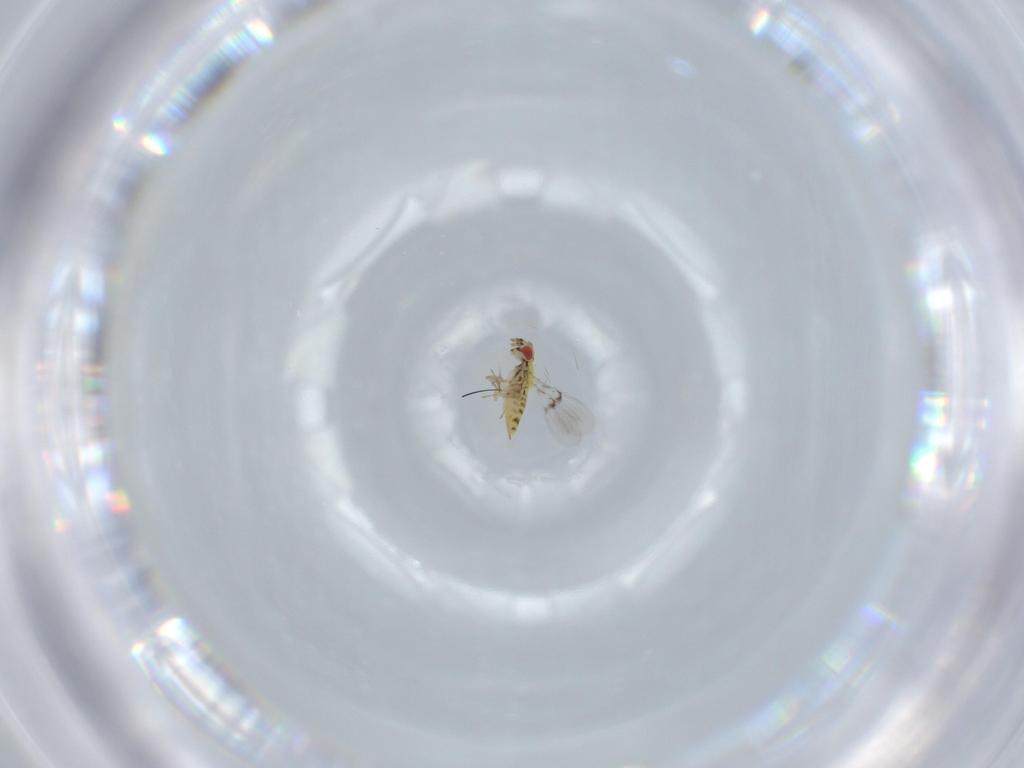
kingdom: Animalia
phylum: Arthropoda
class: Insecta
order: Hymenoptera
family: Trichogrammatidae
